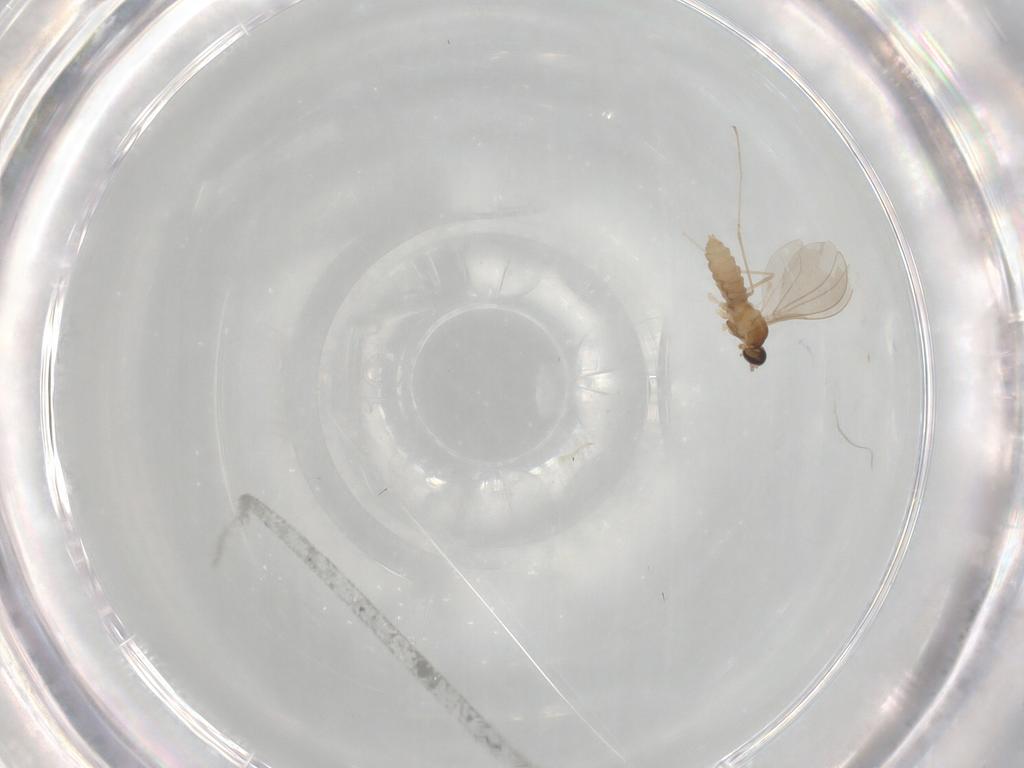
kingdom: Animalia
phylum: Arthropoda
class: Insecta
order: Diptera
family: Cecidomyiidae
